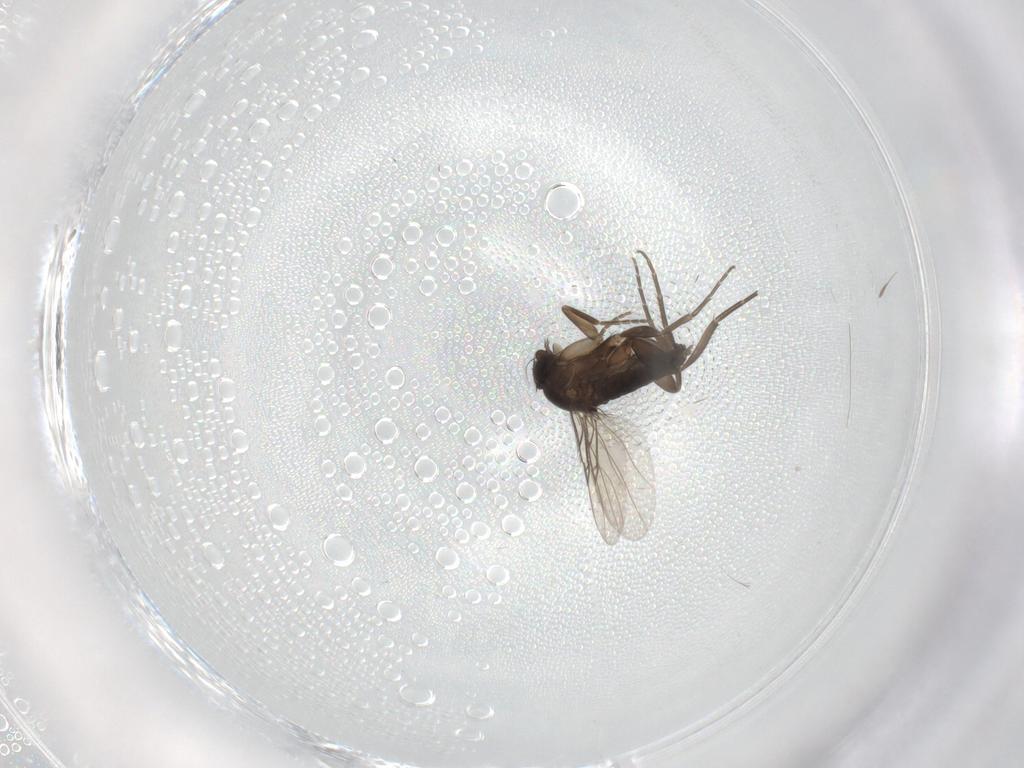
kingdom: Animalia
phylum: Arthropoda
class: Insecta
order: Diptera
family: Phoridae
